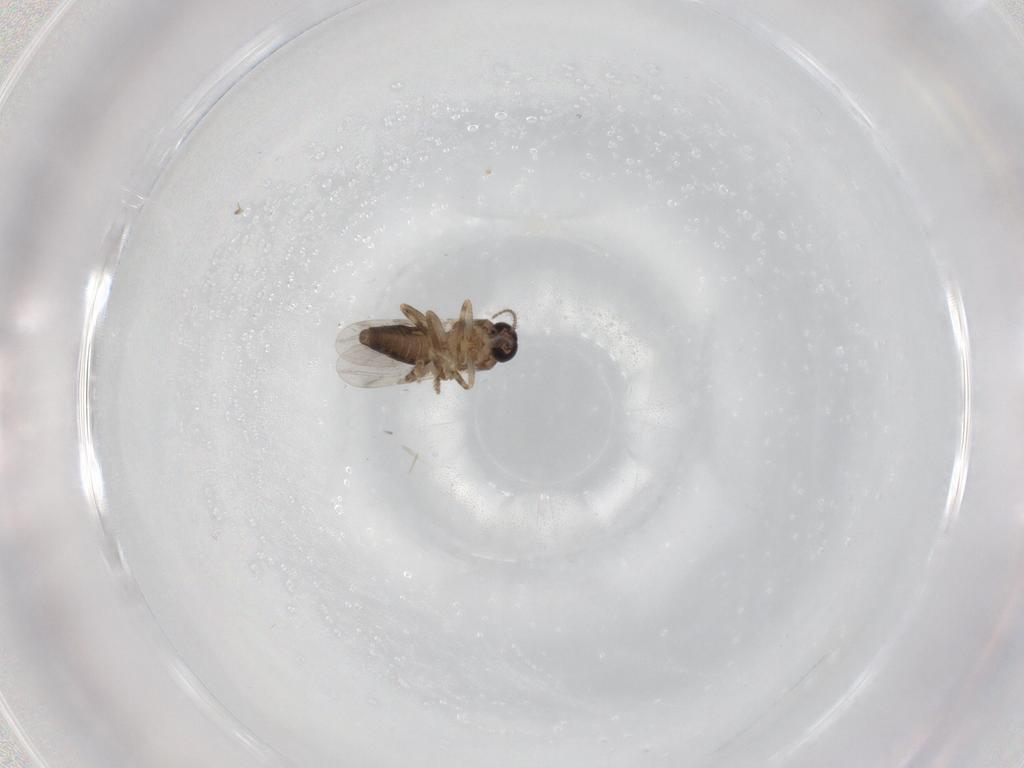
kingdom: Animalia
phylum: Arthropoda
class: Insecta
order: Diptera
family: Ceratopogonidae
